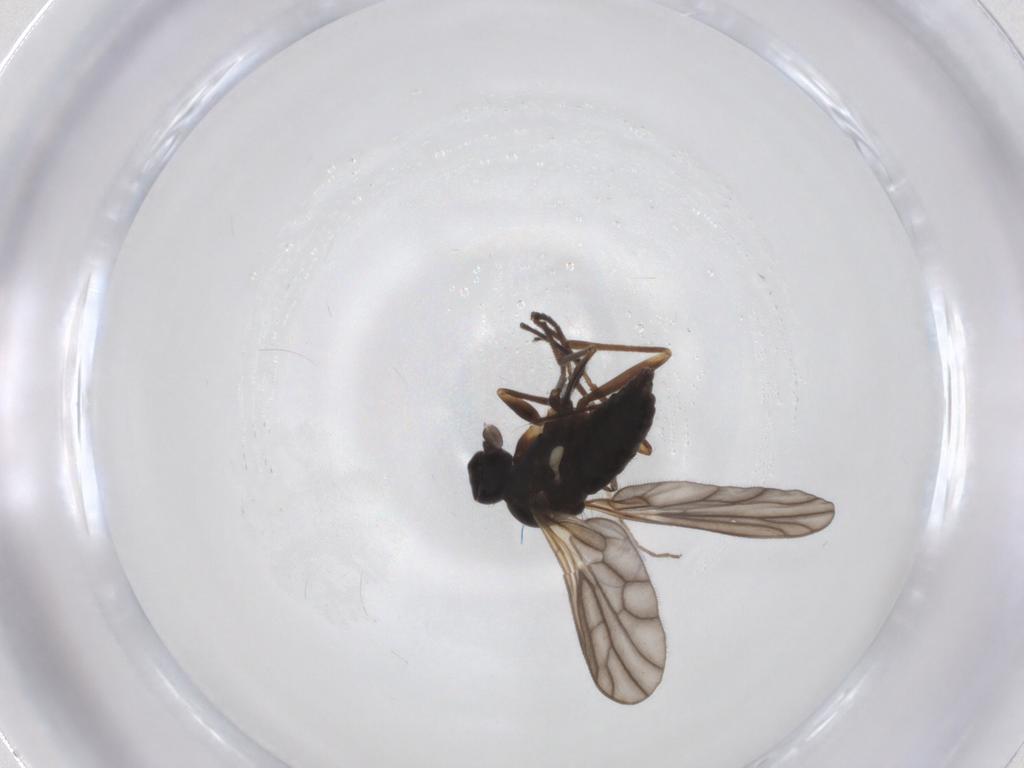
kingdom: Animalia
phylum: Arthropoda
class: Insecta
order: Diptera
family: Chironomidae
